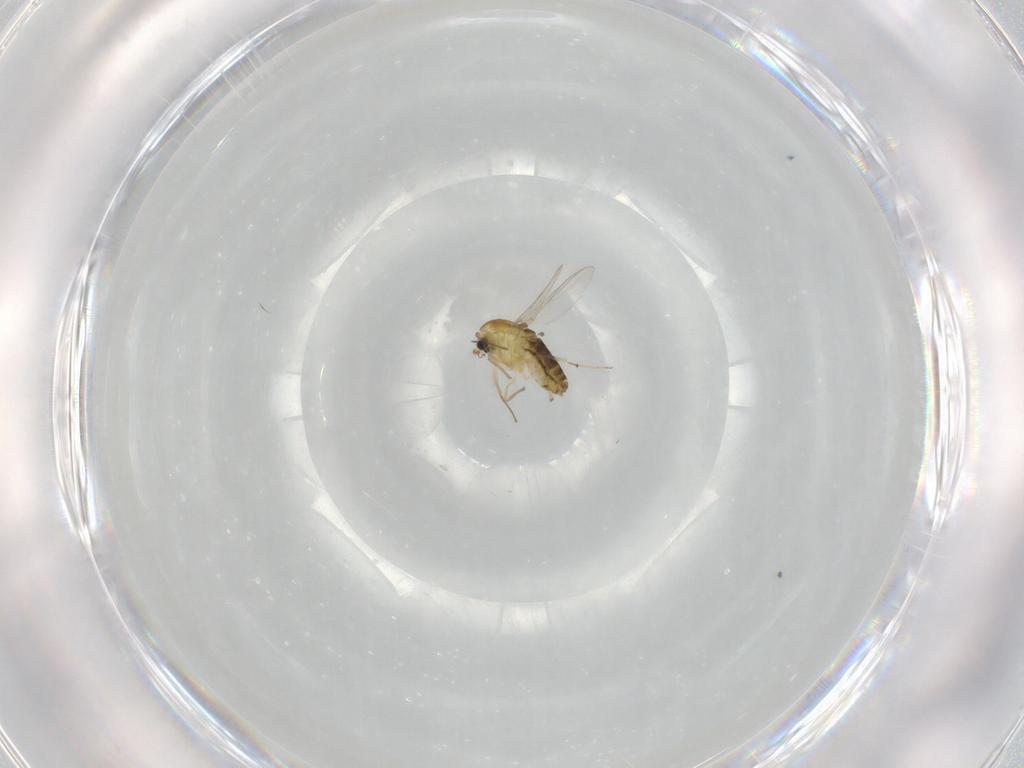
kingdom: Animalia
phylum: Arthropoda
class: Insecta
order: Diptera
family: Chironomidae
